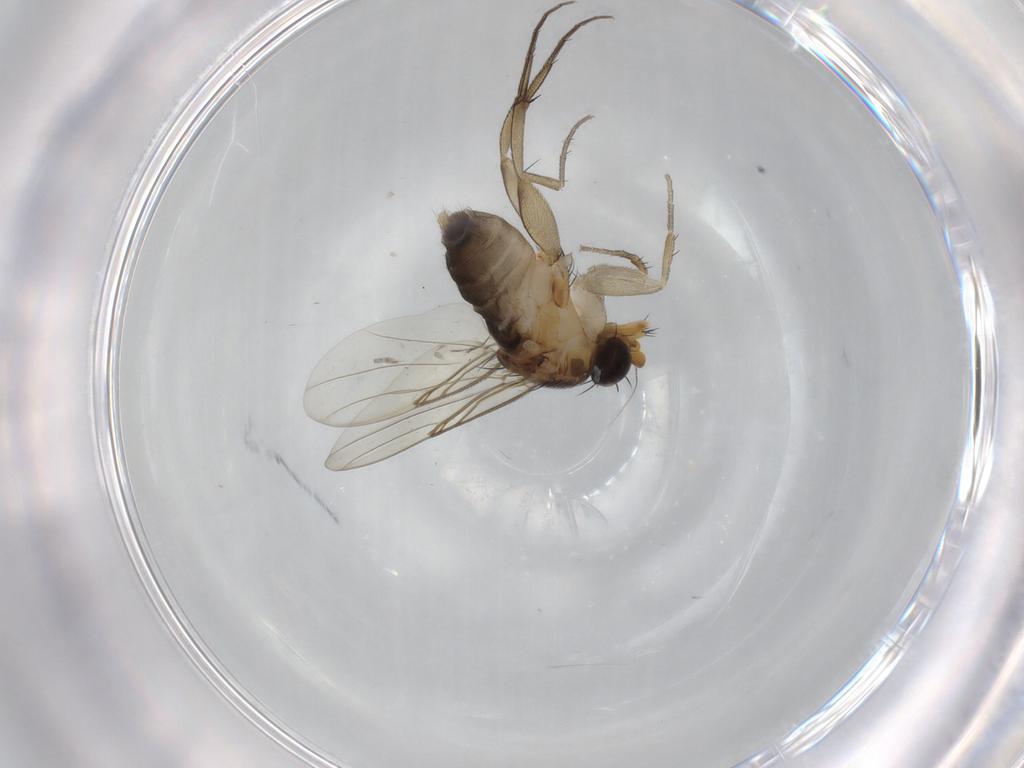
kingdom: Animalia
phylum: Arthropoda
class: Insecta
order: Diptera
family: Phoridae
